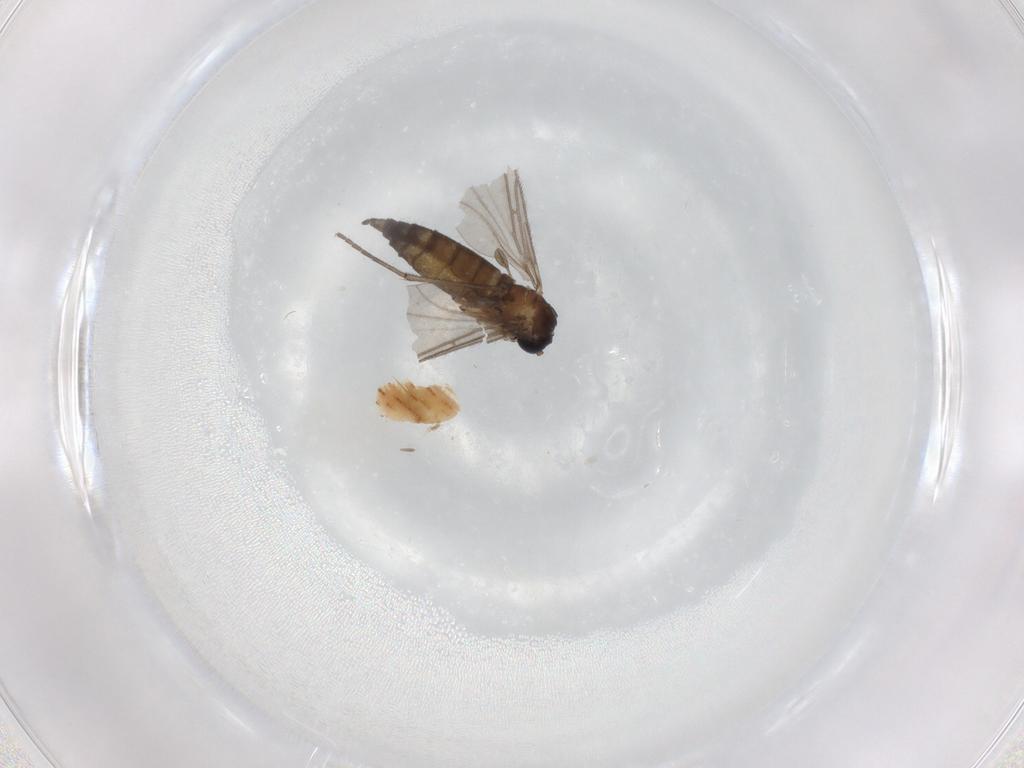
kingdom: Animalia
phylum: Arthropoda
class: Insecta
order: Diptera
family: Sciaridae
